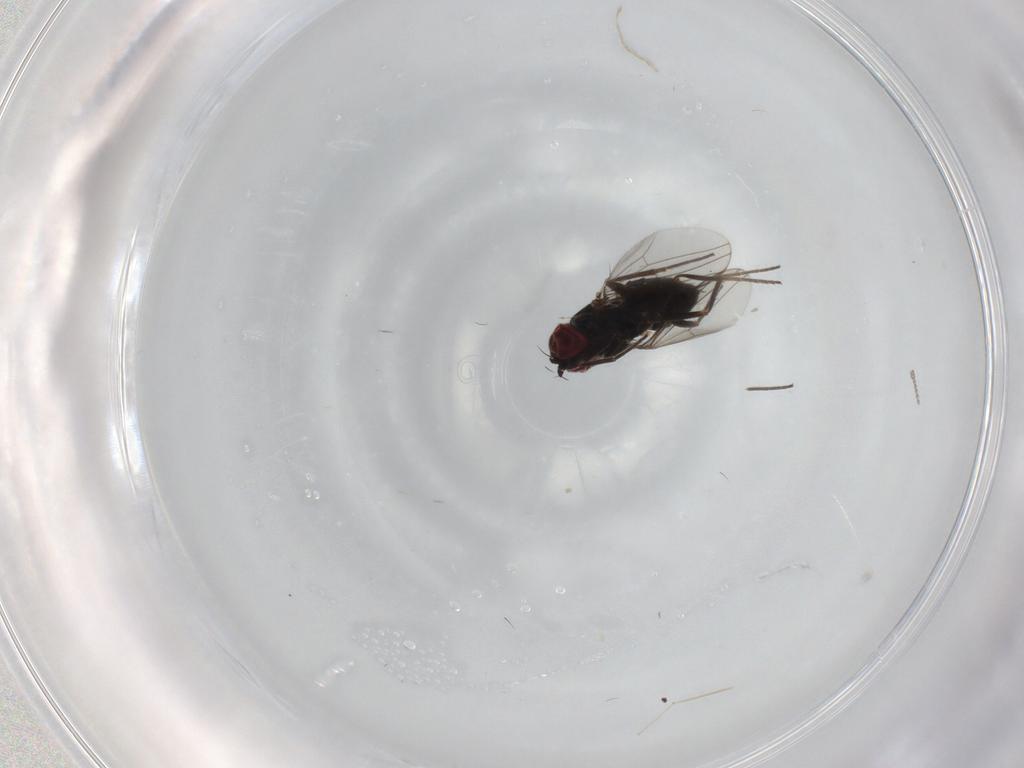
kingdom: Animalia
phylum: Arthropoda
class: Insecta
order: Diptera
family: Dolichopodidae
